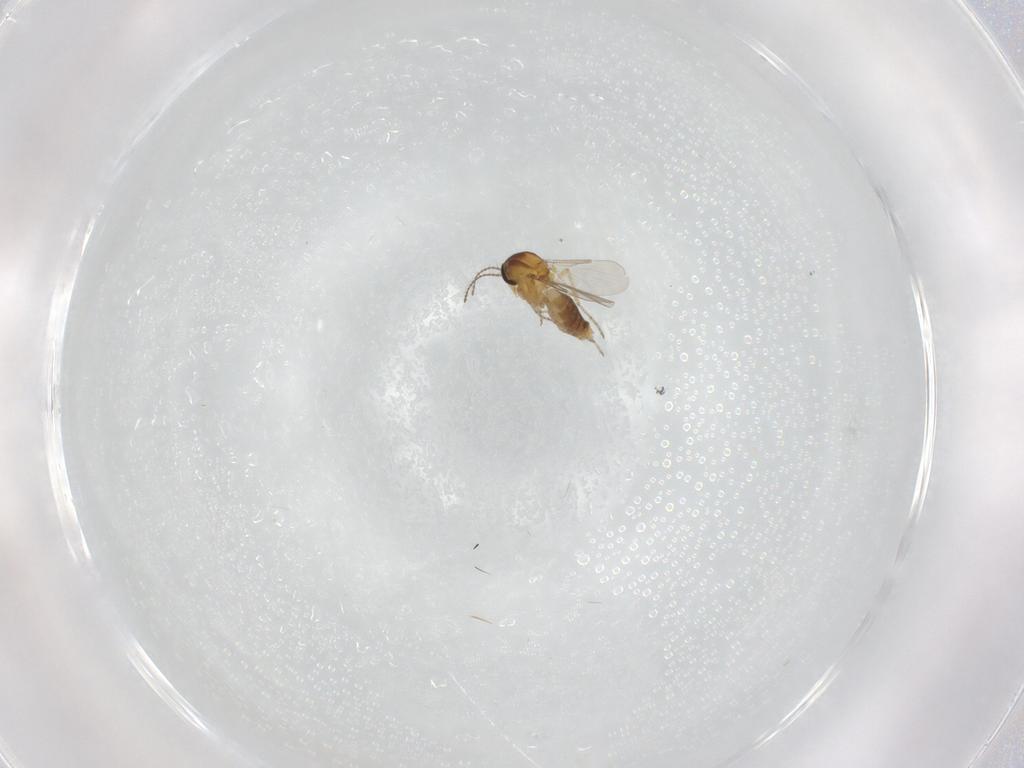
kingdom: Animalia
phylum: Arthropoda
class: Insecta
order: Diptera
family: Ceratopogonidae
